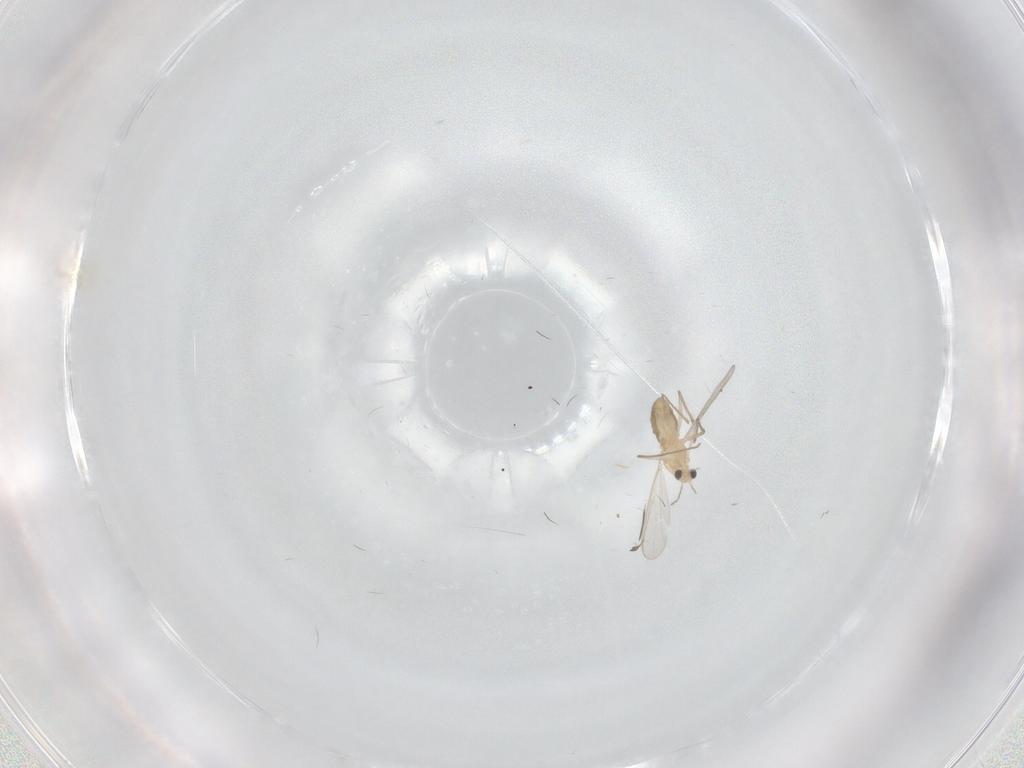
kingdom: Animalia
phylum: Arthropoda
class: Insecta
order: Diptera
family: Chironomidae
